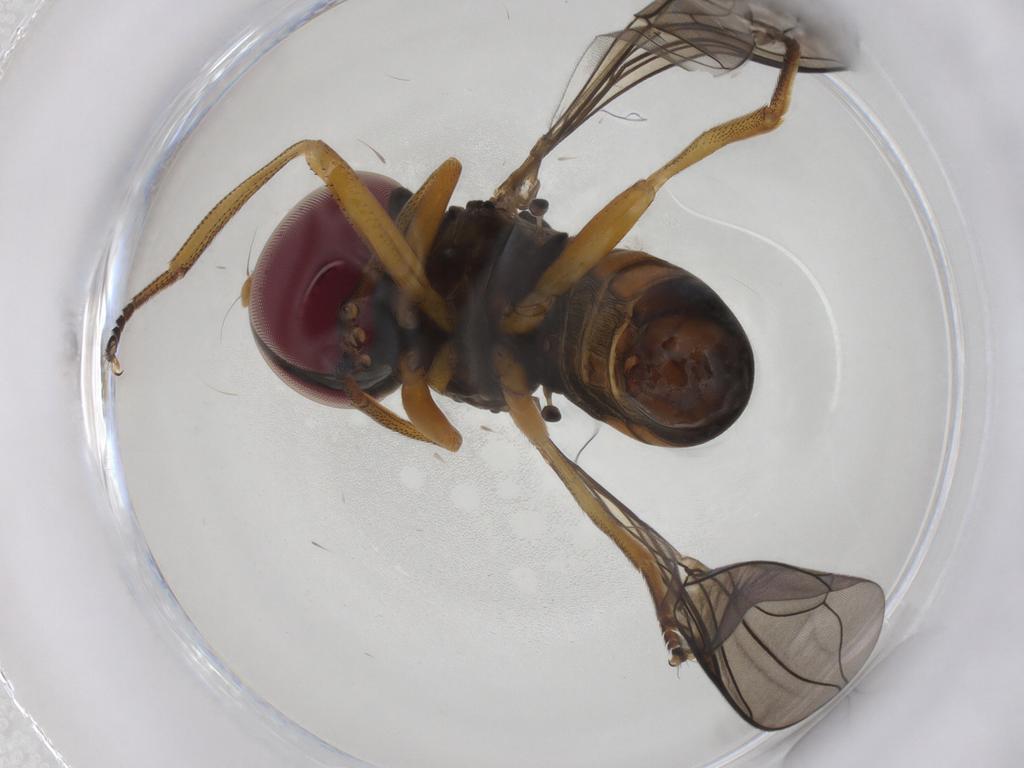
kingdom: Animalia
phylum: Arthropoda
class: Insecta
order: Diptera
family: Pipunculidae
